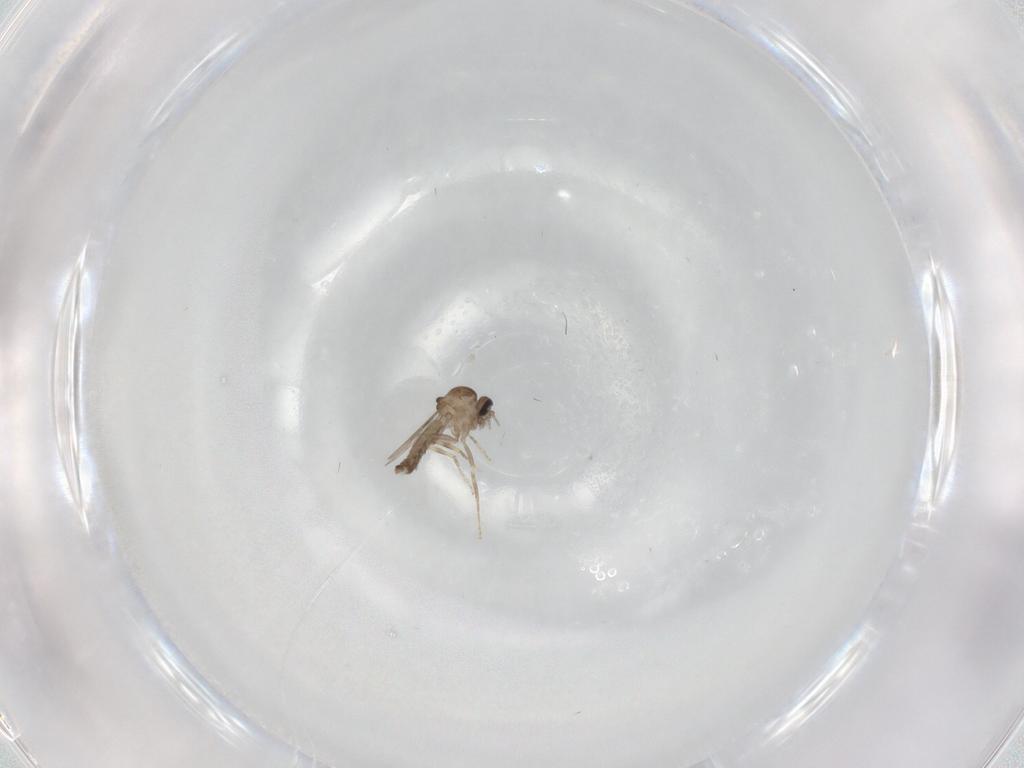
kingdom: Animalia
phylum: Arthropoda
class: Insecta
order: Diptera
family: Ceratopogonidae
